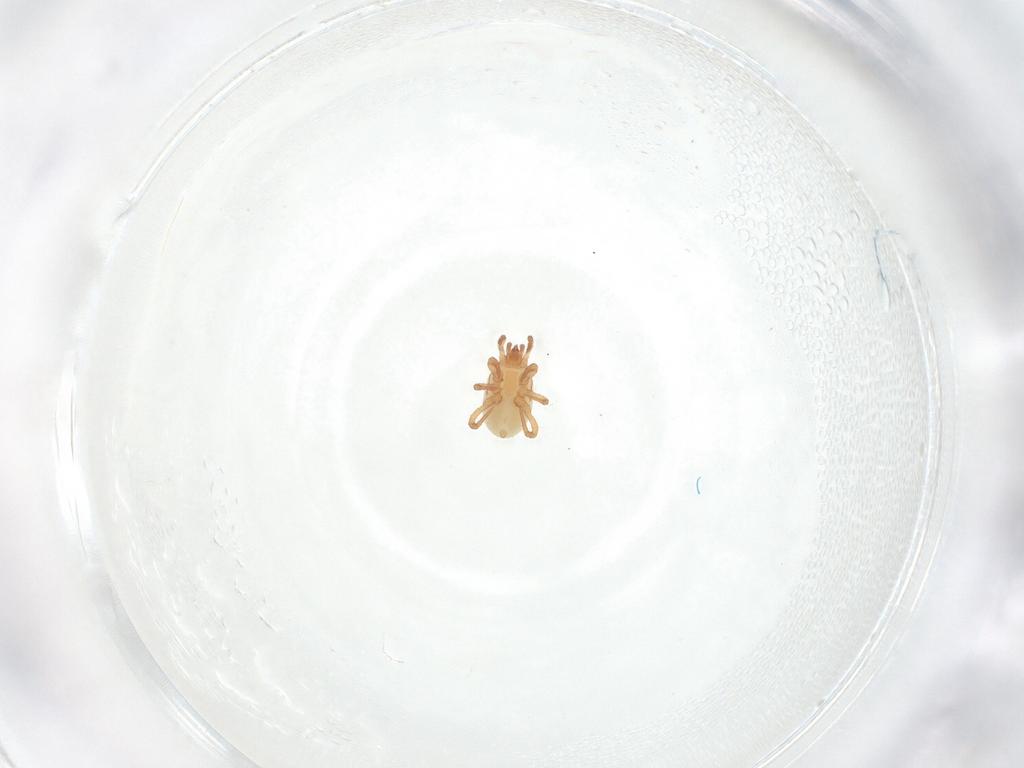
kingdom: Animalia
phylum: Arthropoda
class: Arachnida
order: Mesostigmata
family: Parasitidae
